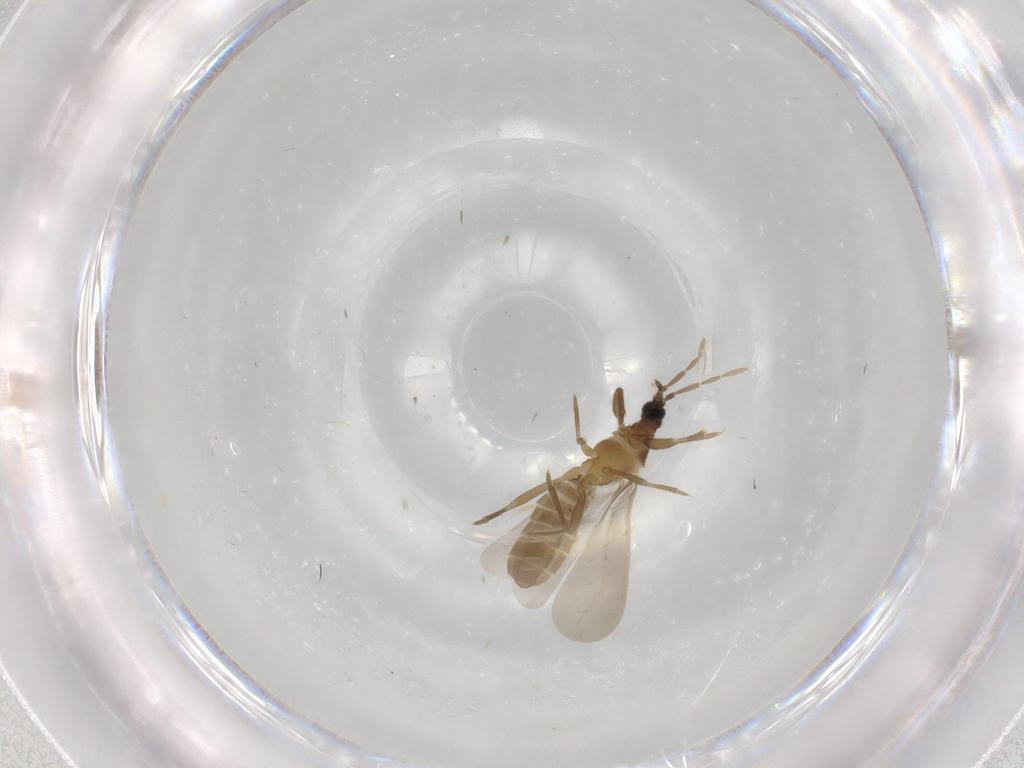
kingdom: Animalia
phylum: Arthropoda
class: Insecta
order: Hemiptera
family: Enicocephalidae
